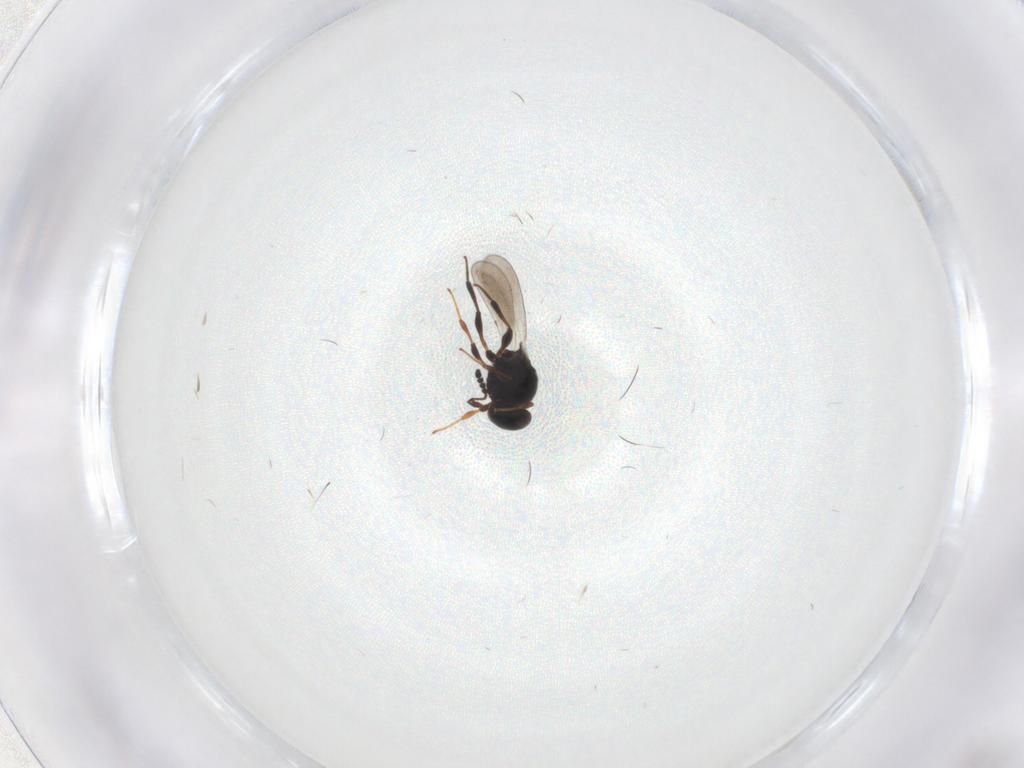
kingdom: Animalia
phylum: Arthropoda
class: Insecta
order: Hymenoptera
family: Platygastridae
